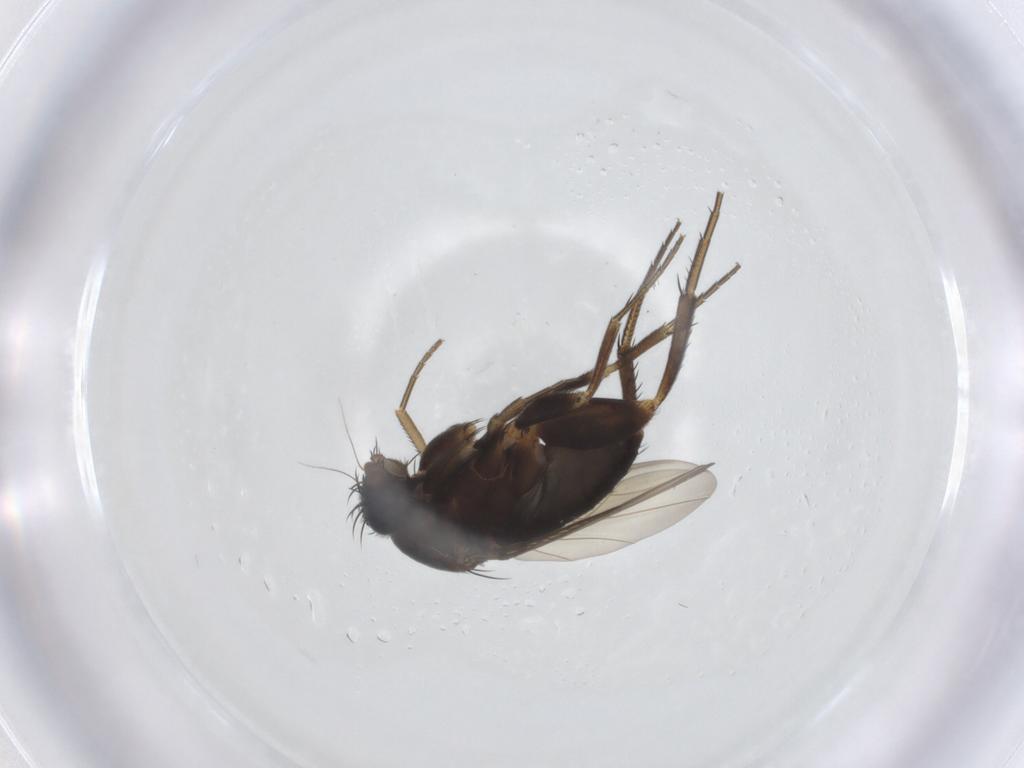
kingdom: Animalia
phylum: Arthropoda
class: Insecta
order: Diptera
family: Phoridae
